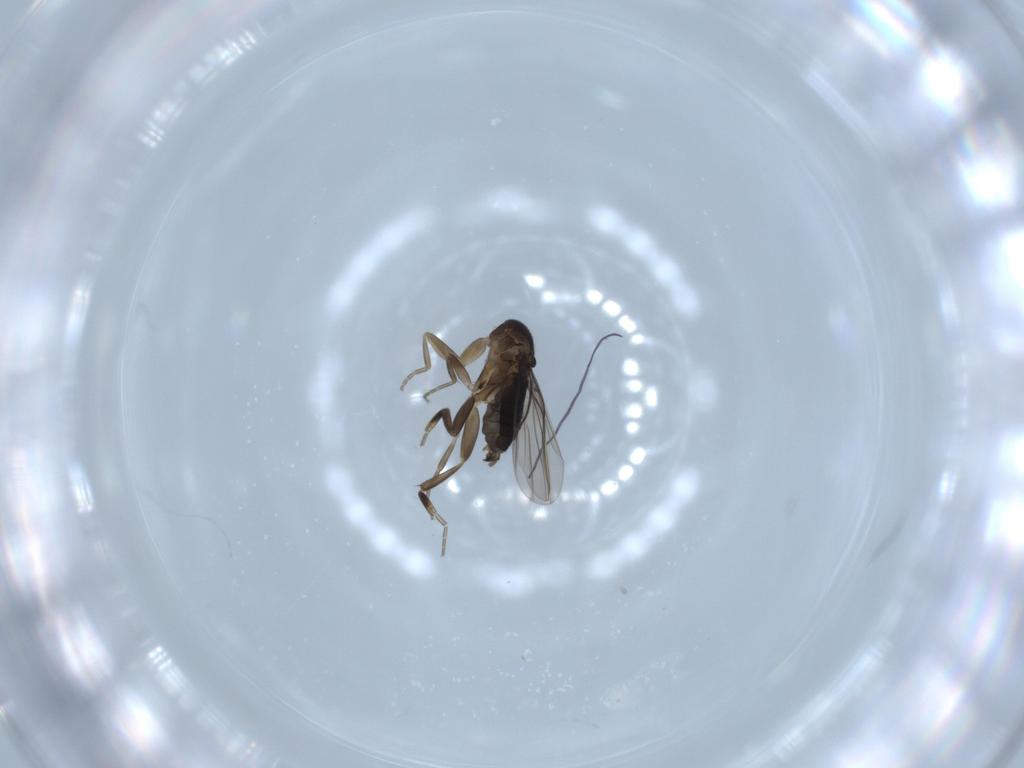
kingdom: Animalia
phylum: Arthropoda
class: Insecta
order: Diptera
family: Phoridae
